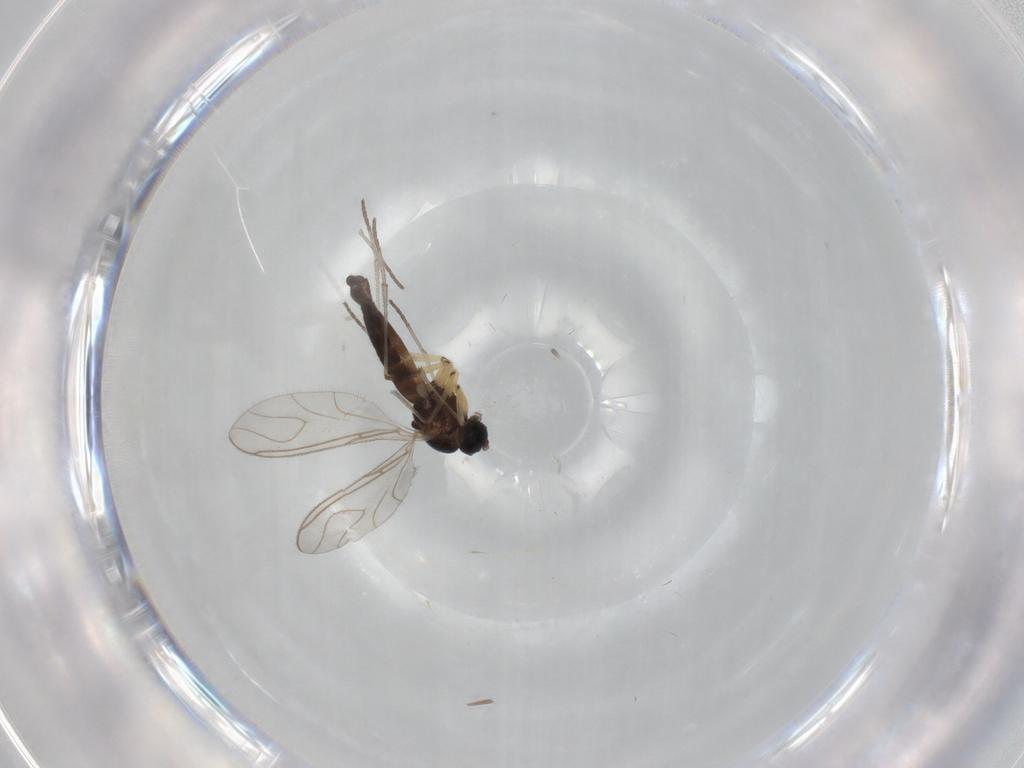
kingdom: Animalia
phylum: Arthropoda
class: Insecta
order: Diptera
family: Sciaridae
